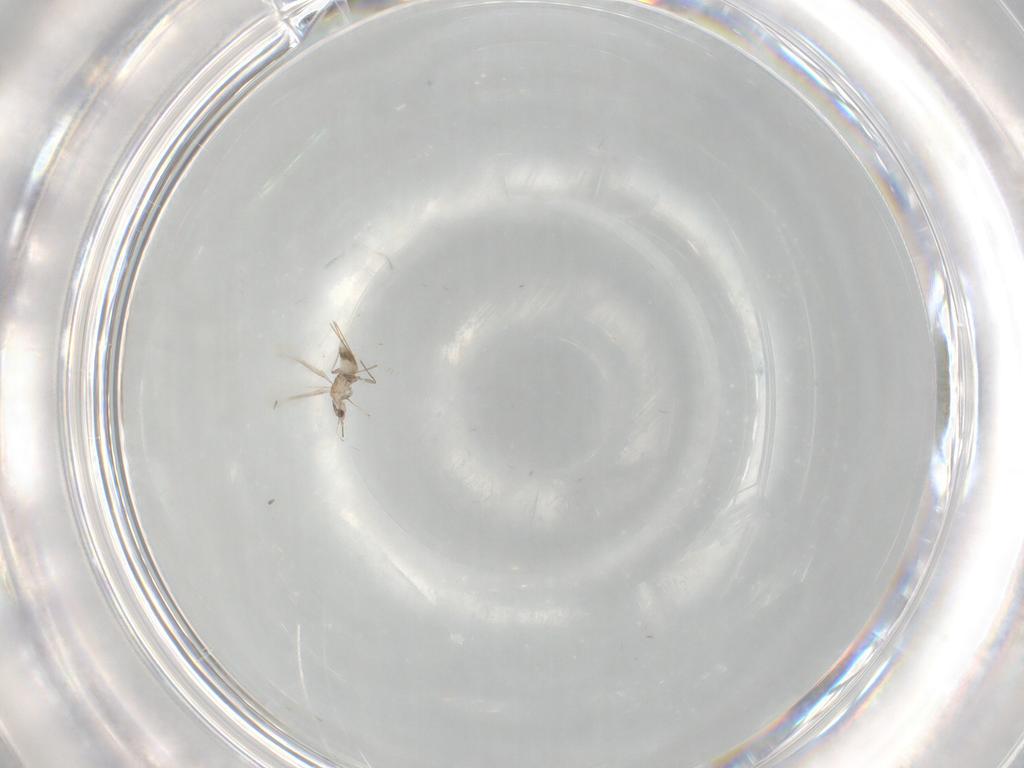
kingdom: Animalia
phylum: Arthropoda
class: Insecta
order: Hymenoptera
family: Mymaridae
